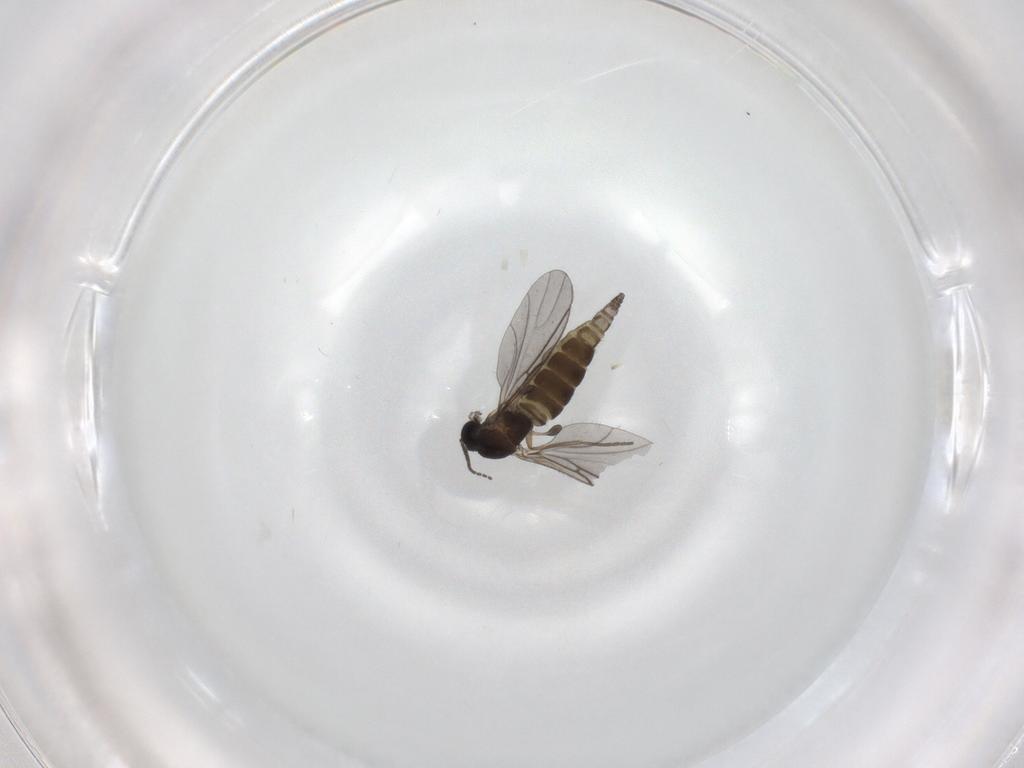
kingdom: Animalia
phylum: Arthropoda
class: Insecta
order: Diptera
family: Sciaridae
